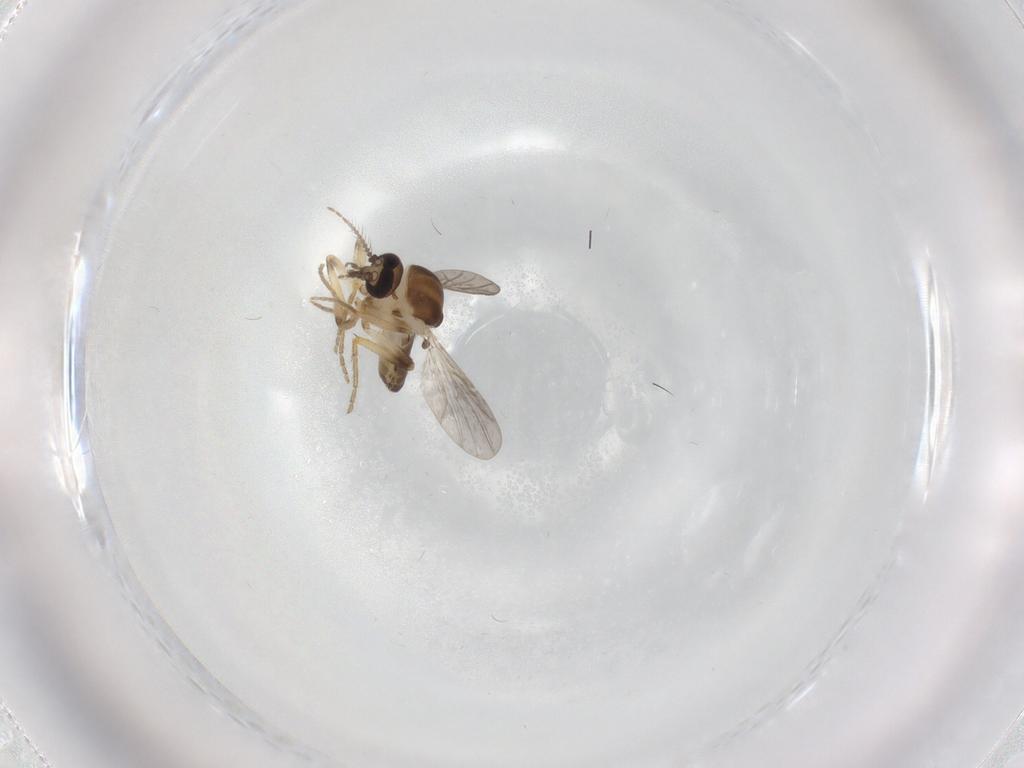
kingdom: Animalia
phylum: Arthropoda
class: Insecta
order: Diptera
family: Ceratopogonidae
